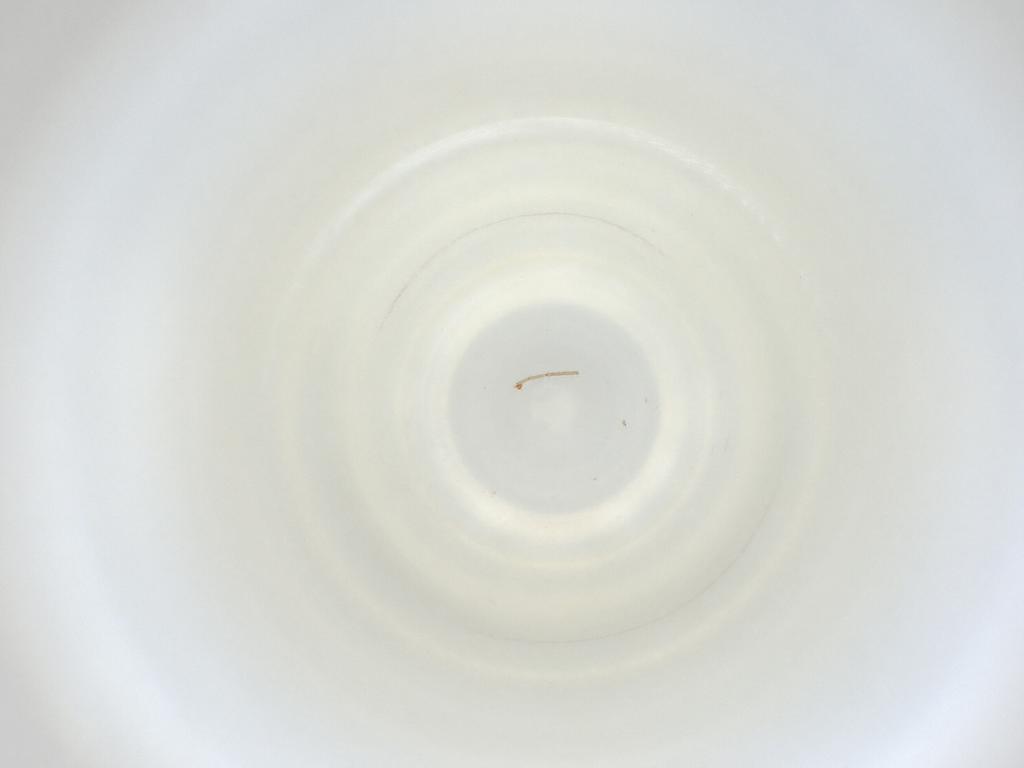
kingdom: Animalia
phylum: Arthropoda
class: Insecta
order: Diptera
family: Cecidomyiidae
